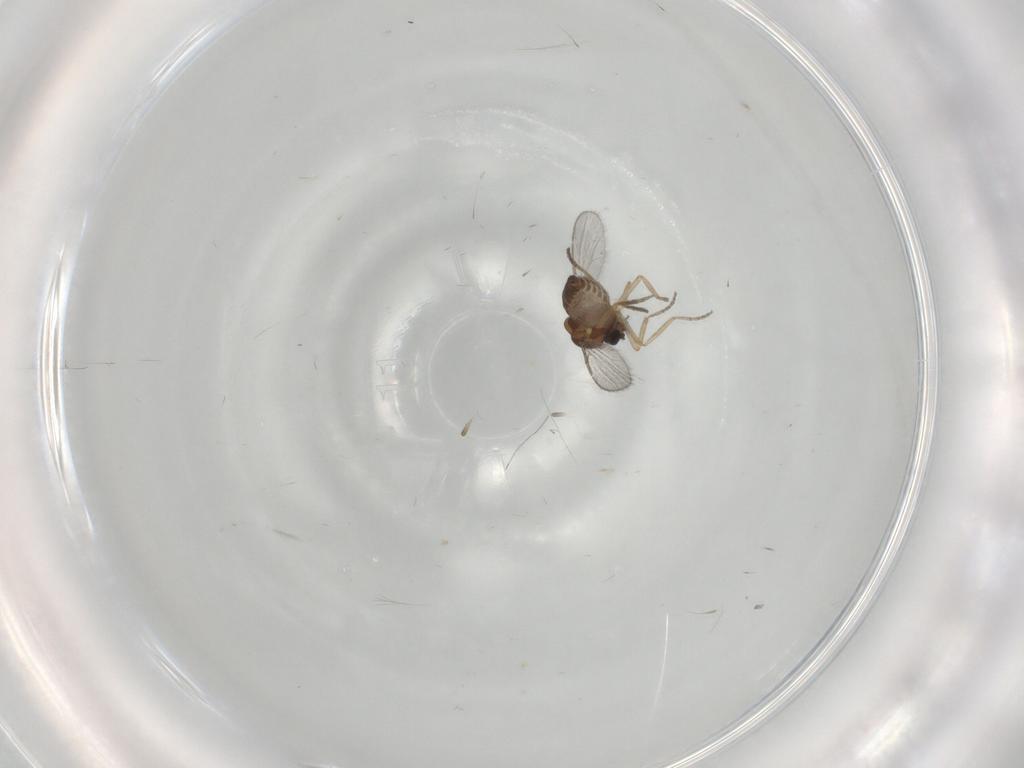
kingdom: Animalia
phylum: Arthropoda
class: Insecta
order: Diptera
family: Ceratopogonidae
